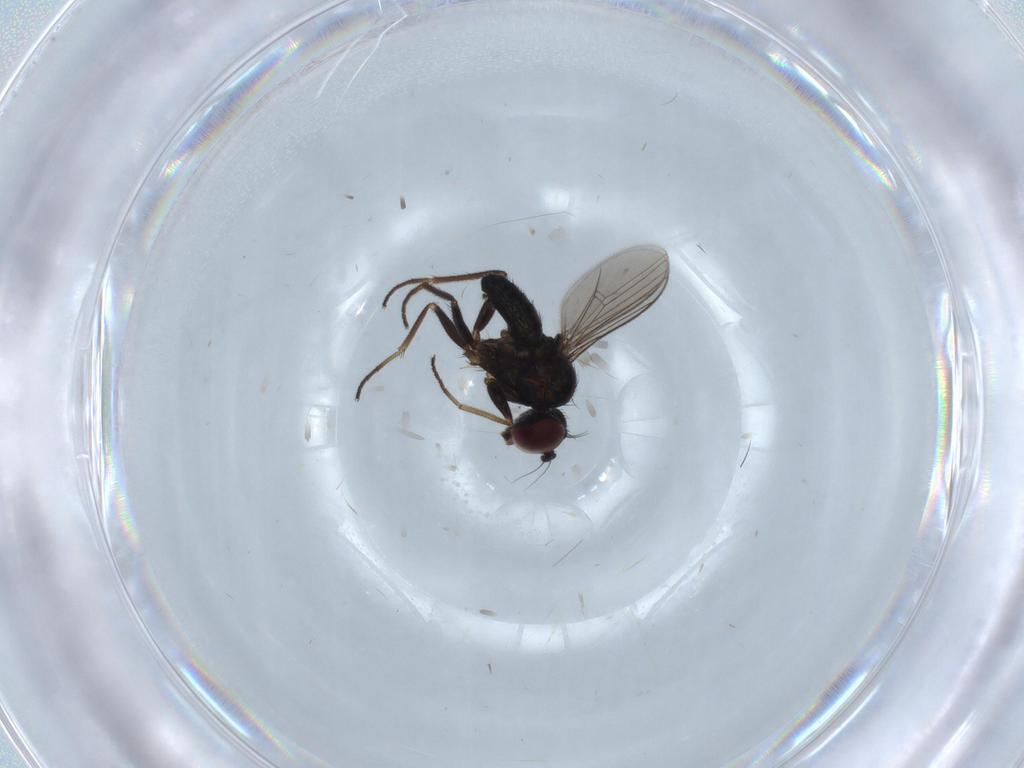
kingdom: Animalia
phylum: Arthropoda
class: Insecta
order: Diptera
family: Dolichopodidae
